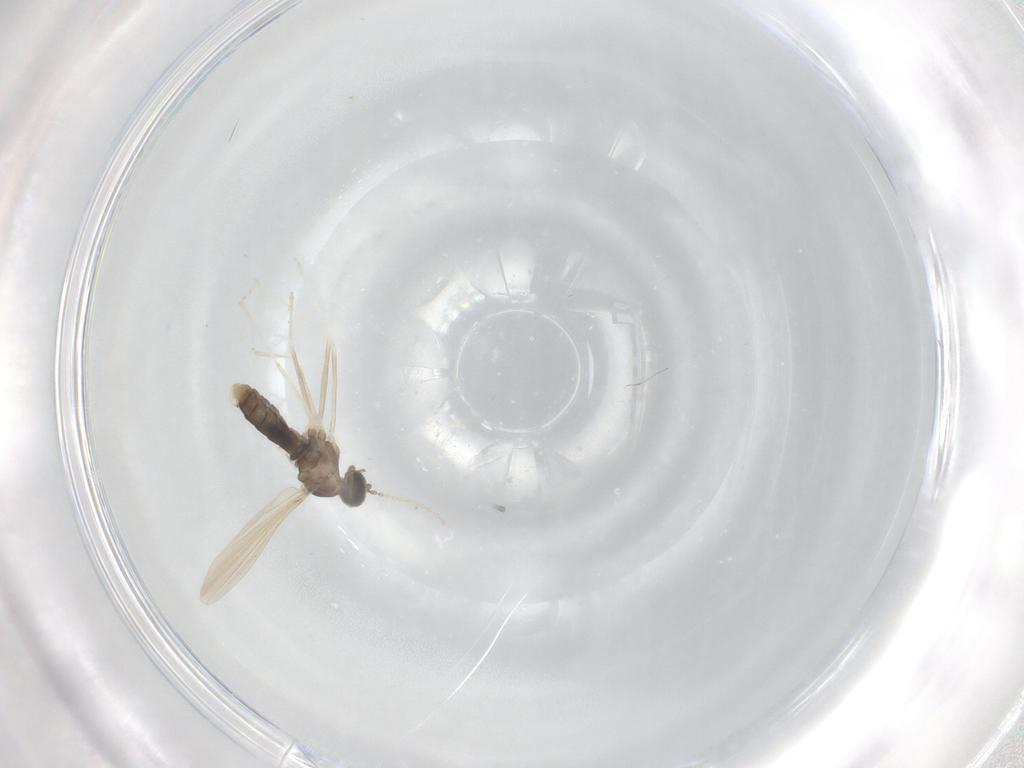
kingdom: Animalia
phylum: Arthropoda
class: Insecta
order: Diptera
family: Cecidomyiidae
